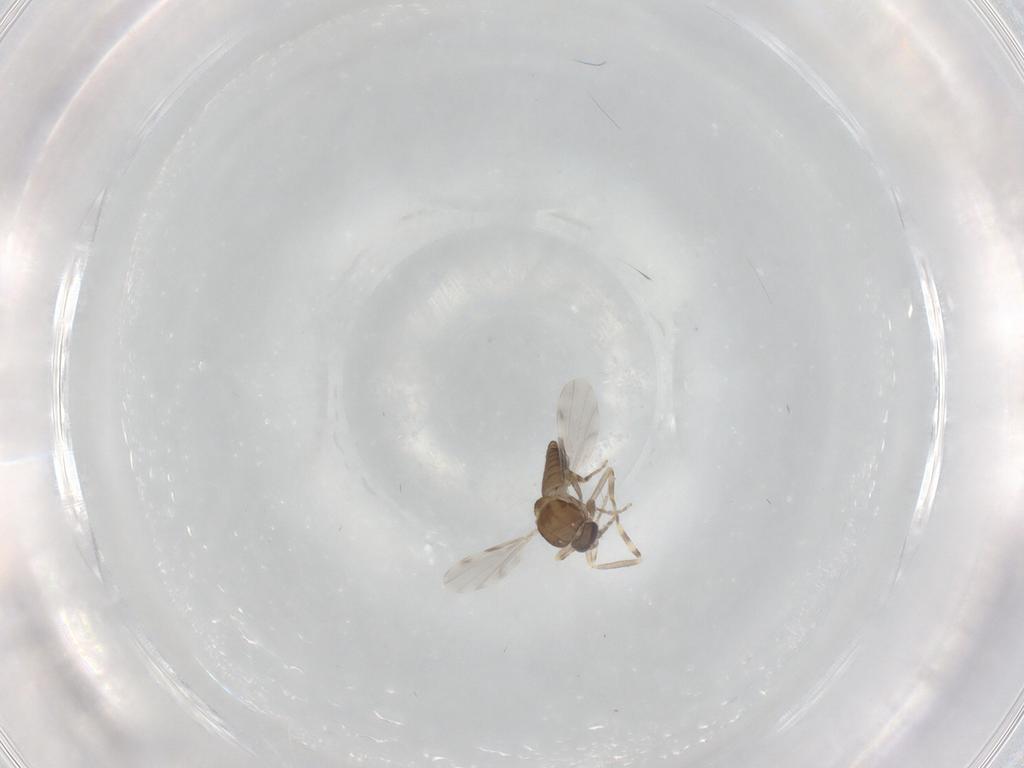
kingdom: Animalia
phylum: Arthropoda
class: Insecta
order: Diptera
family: Ceratopogonidae
